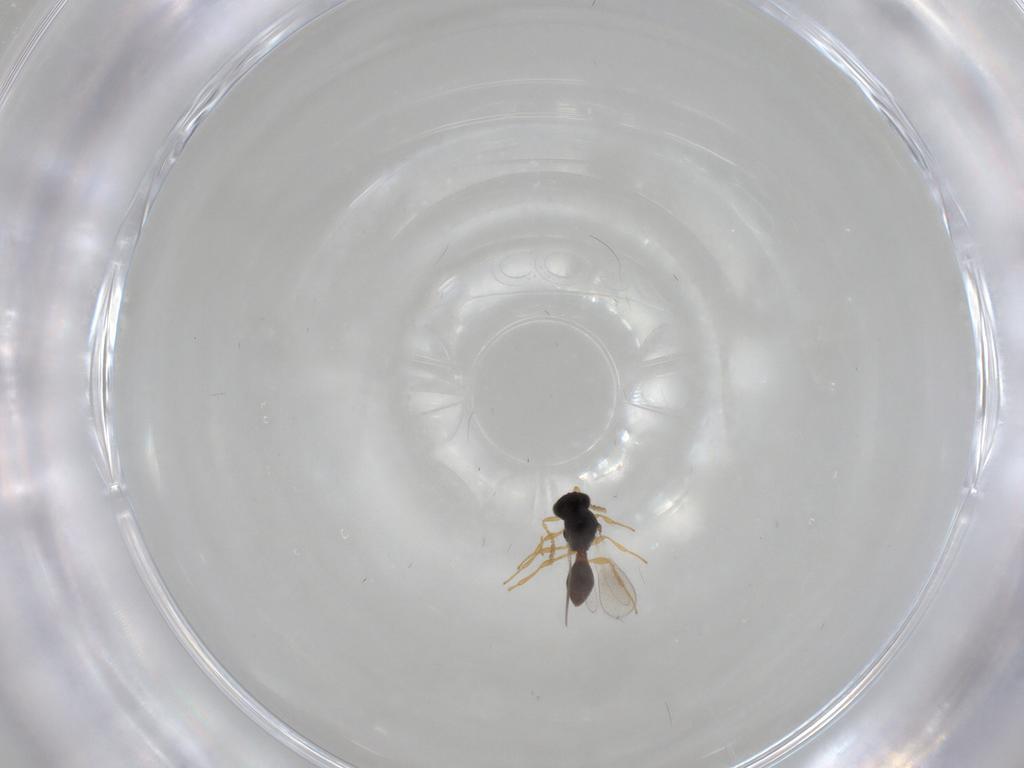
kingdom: Animalia
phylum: Arthropoda
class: Insecta
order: Hymenoptera
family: Platygastridae
